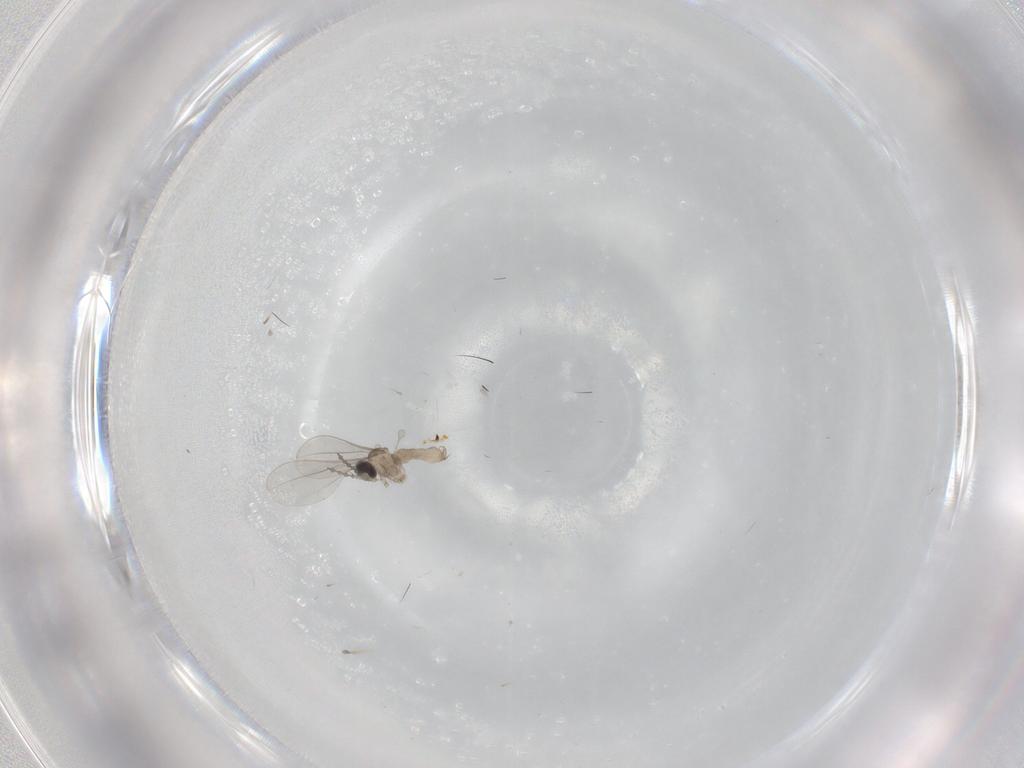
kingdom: Animalia
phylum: Arthropoda
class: Insecta
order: Diptera
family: Cecidomyiidae
